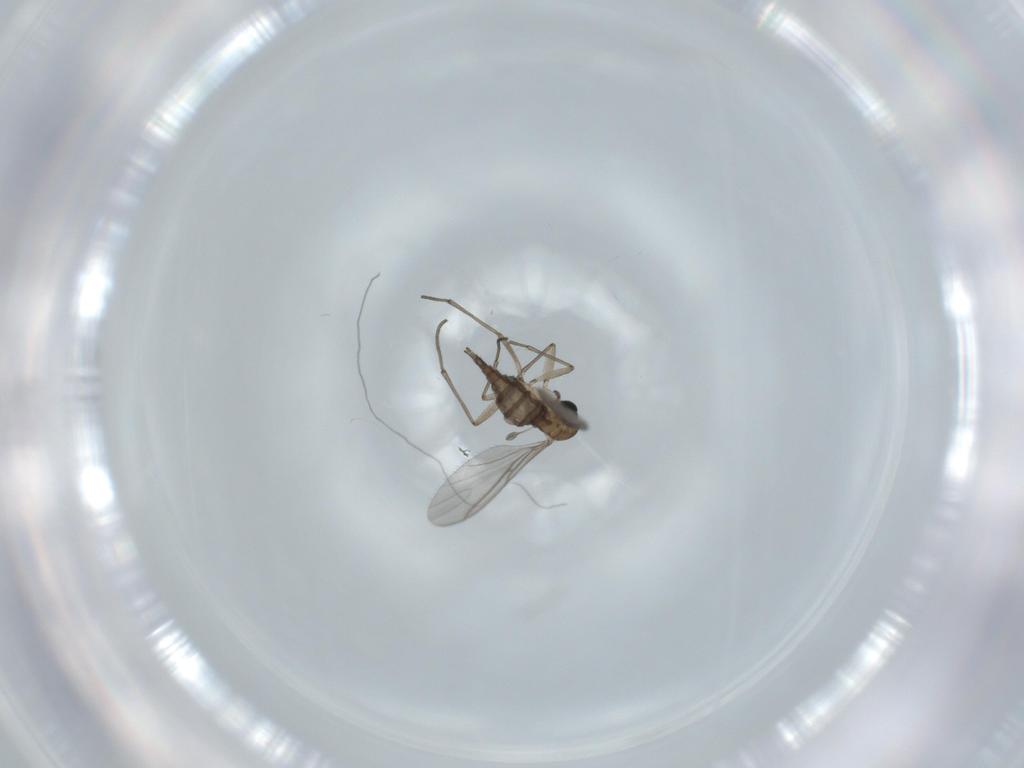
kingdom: Animalia
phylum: Arthropoda
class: Insecta
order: Diptera
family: Sciaridae
